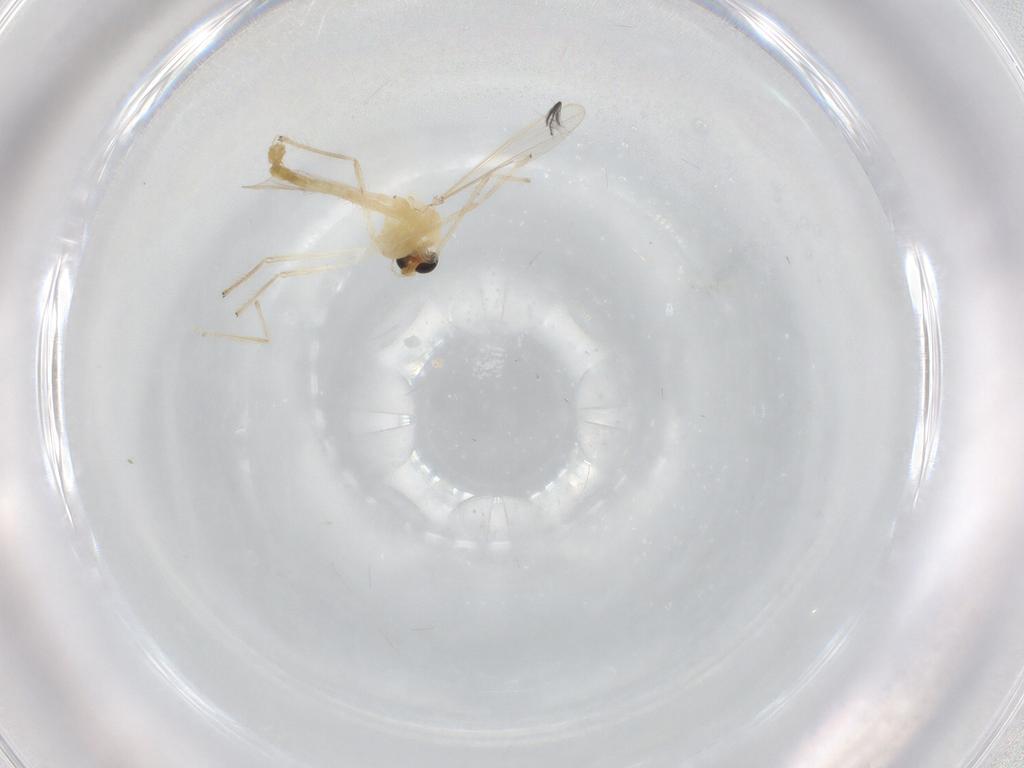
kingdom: Animalia
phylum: Arthropoda
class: Insecta
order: Diptera
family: Chironomidae
